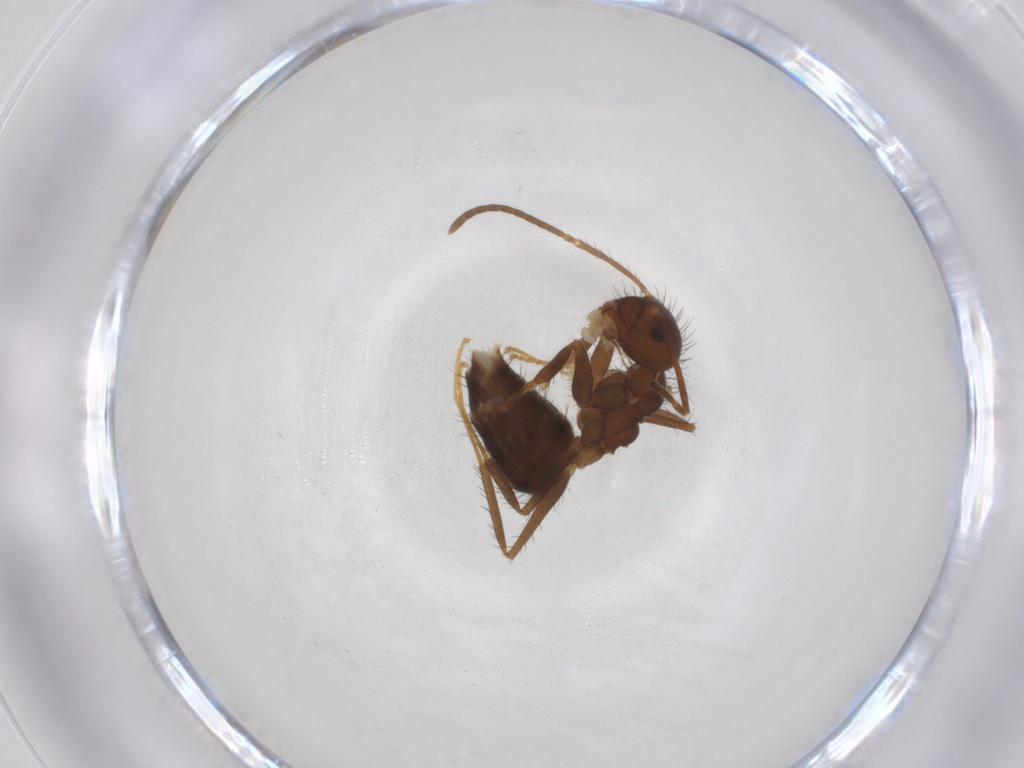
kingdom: Animalia
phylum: Arthropoda
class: Insecta
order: Hymenoptera
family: Formicidae
